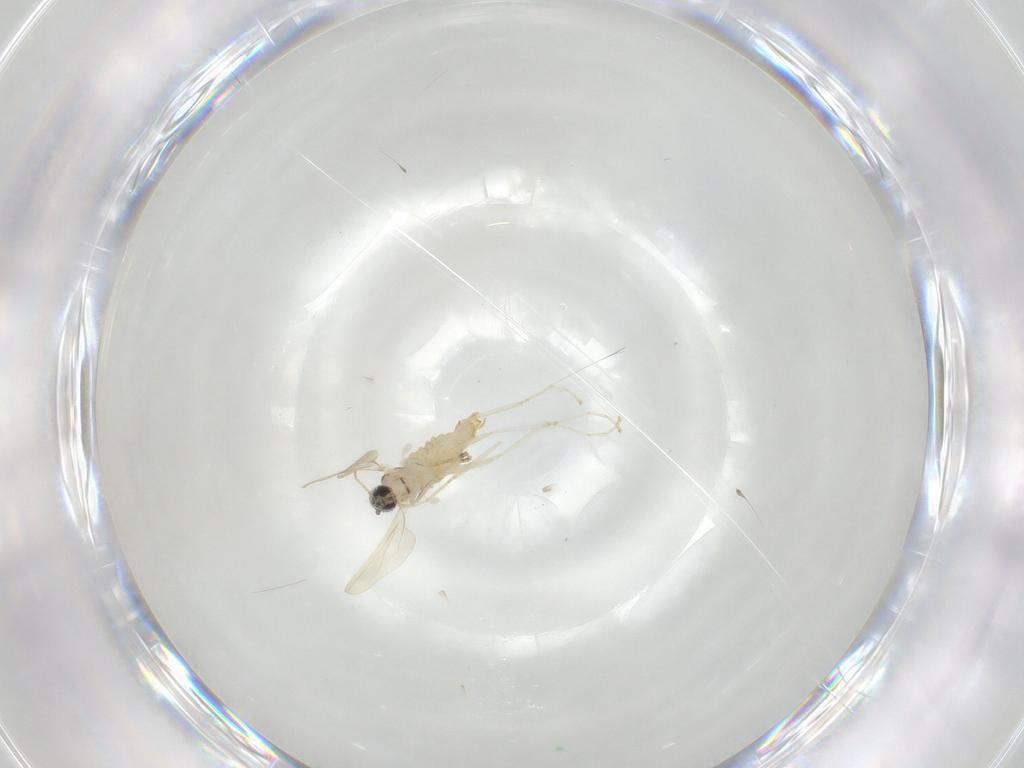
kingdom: Animalia
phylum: Arthropoda
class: Insecta
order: Diptera
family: Cecidomyiidae
